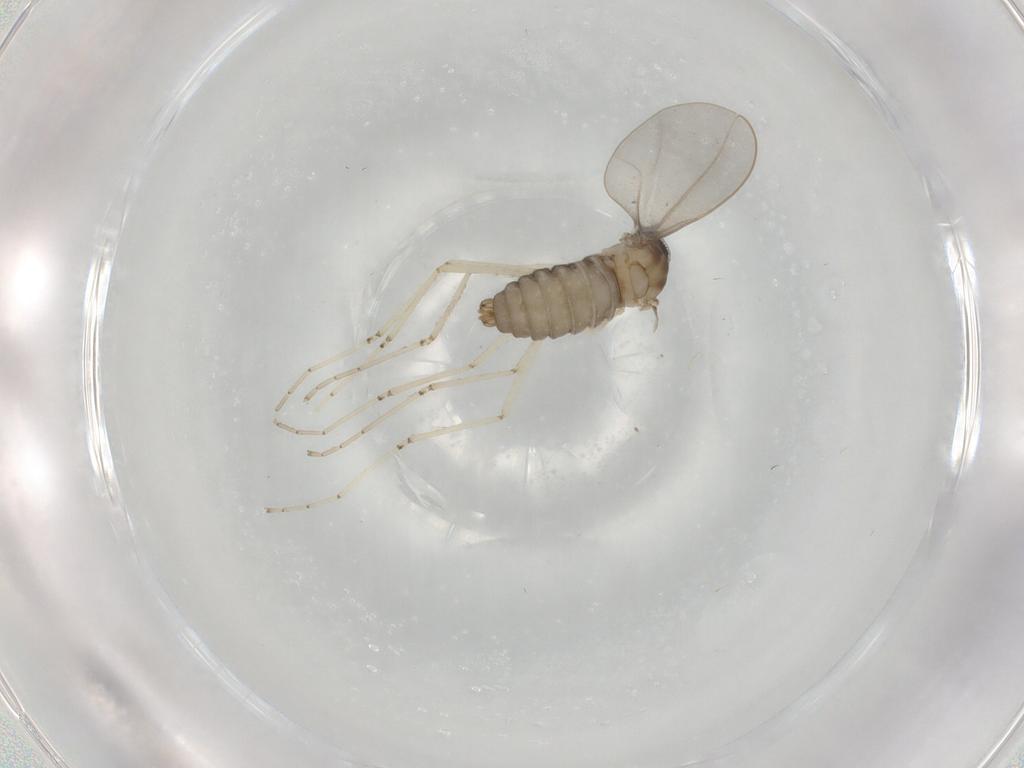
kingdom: Animalia
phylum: Arthropoda
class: Insecta
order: Diptera
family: Cecidomyiidae
